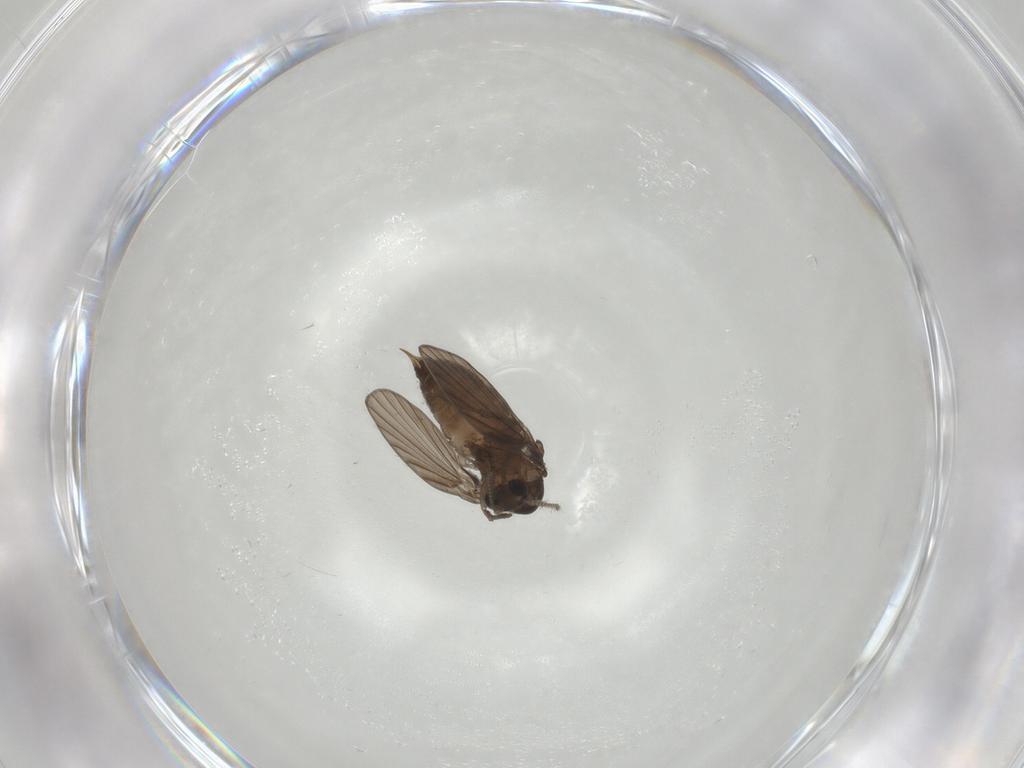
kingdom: Animalia
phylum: Arthropoda
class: Insecta
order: Diptera
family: Psychodidae
